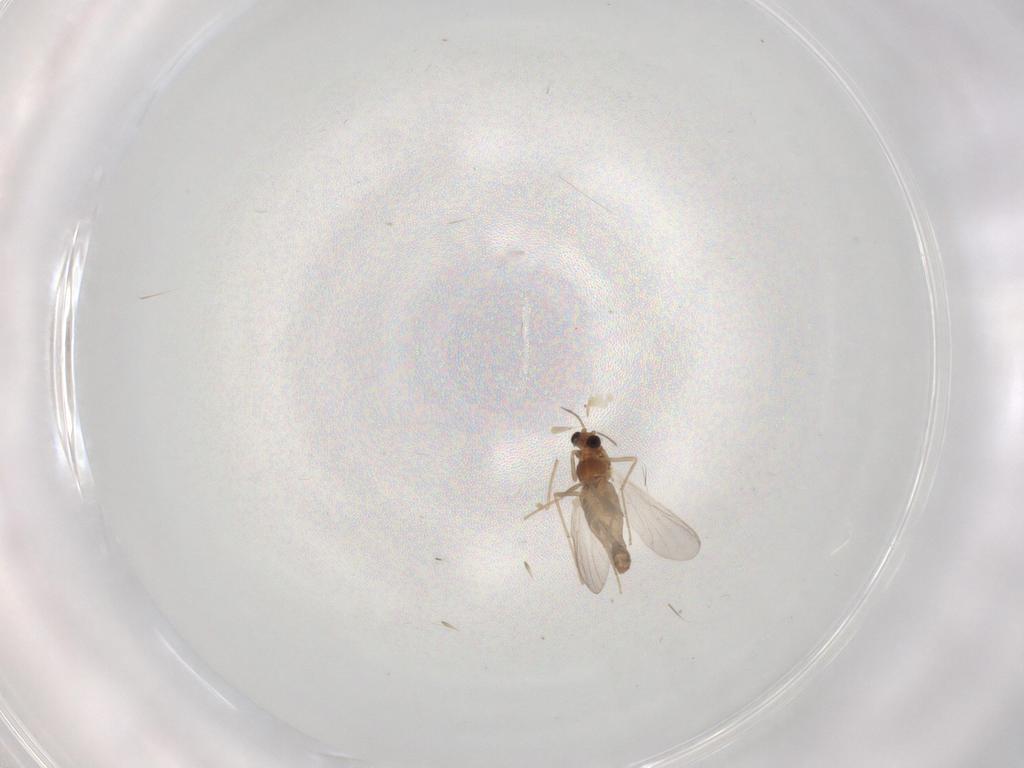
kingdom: Animalia
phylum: Arthropoda
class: Insecta
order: Diptera
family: Chironomidae
